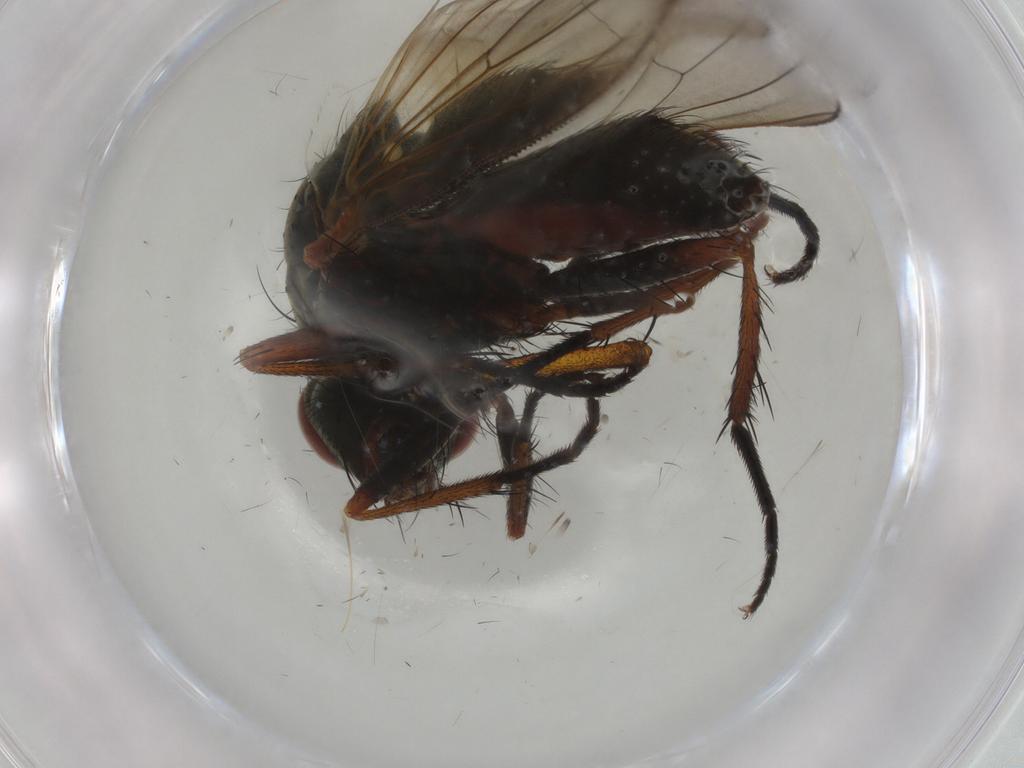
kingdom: Animalia
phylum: Arthropoda
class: Insecta
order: Diptera
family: Anthomyiidae
